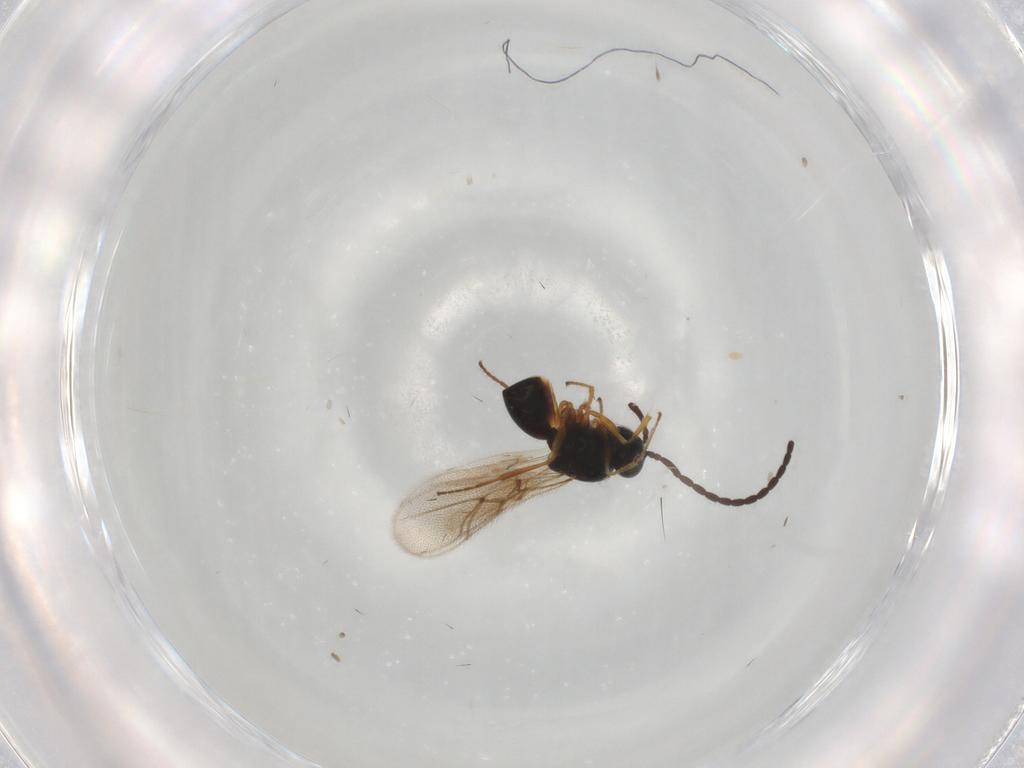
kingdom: Animalia
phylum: Arthropoda
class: Insecta
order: Hymenoptera
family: Figitidae
